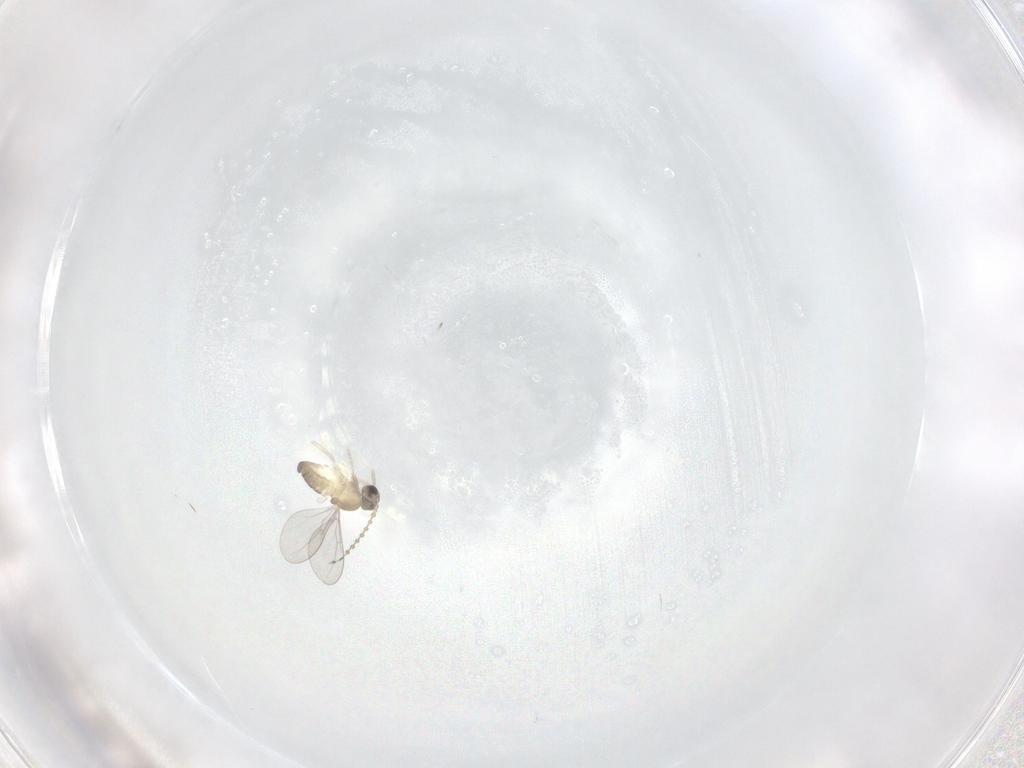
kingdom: Animalia
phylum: Arthropoda
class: Insecta
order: Diptera
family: Cecidomyiidae
